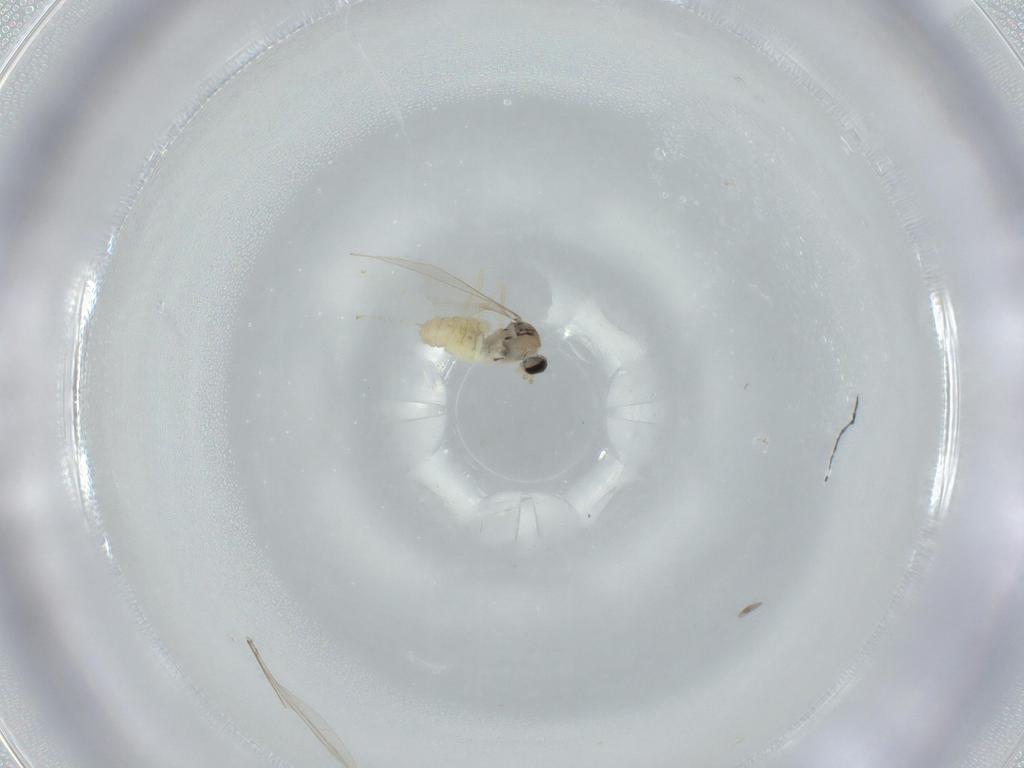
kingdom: Animalia
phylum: Arthropoda
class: Insecta
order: Diptera
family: Cecidomyiidae
